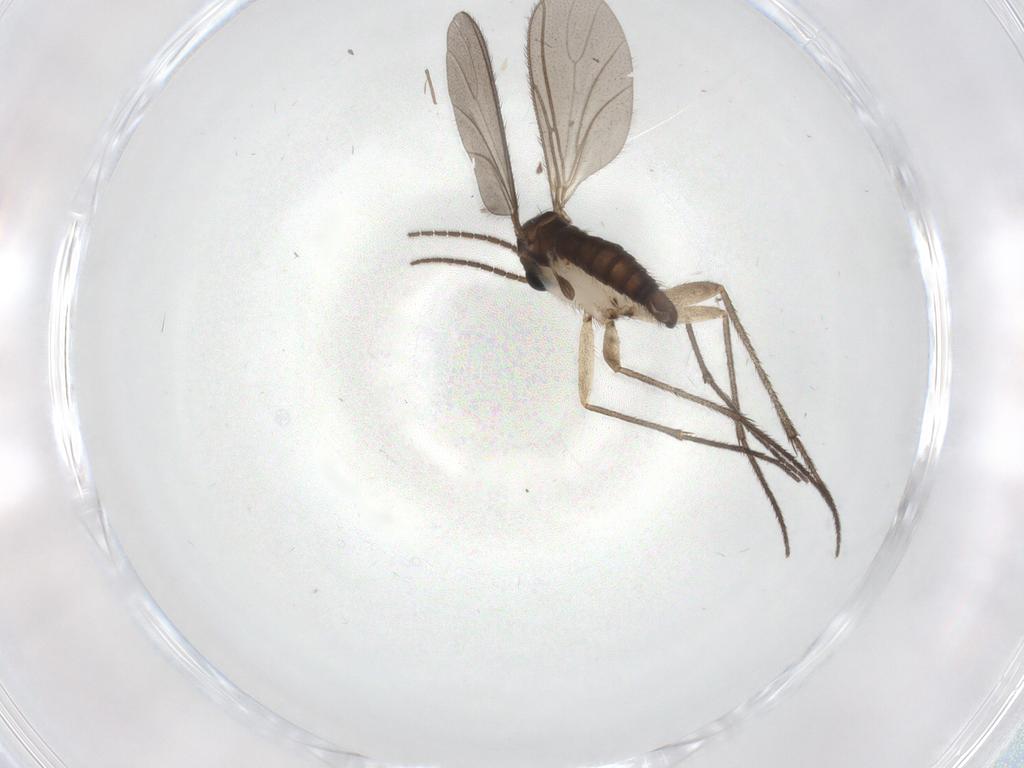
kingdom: Animalia
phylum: Arthropoda
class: Insecta
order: Diptera
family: Sciaridae
